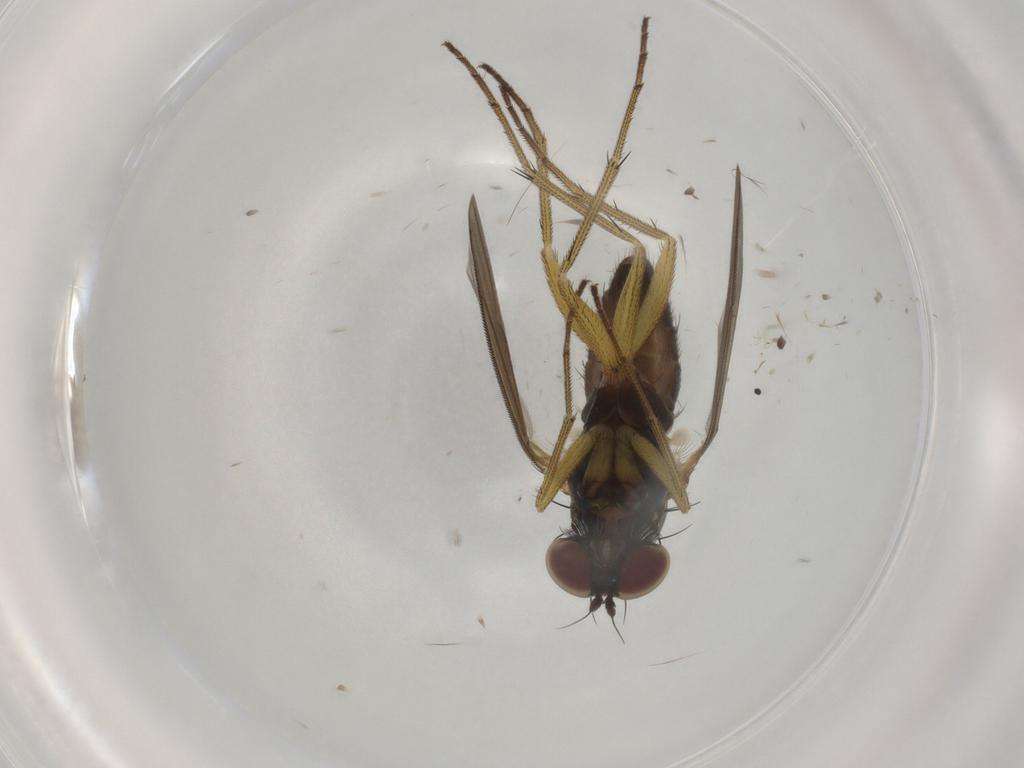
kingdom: Animalia
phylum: Arthropoda
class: Insecta
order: Diptera
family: Dolichopodidae
